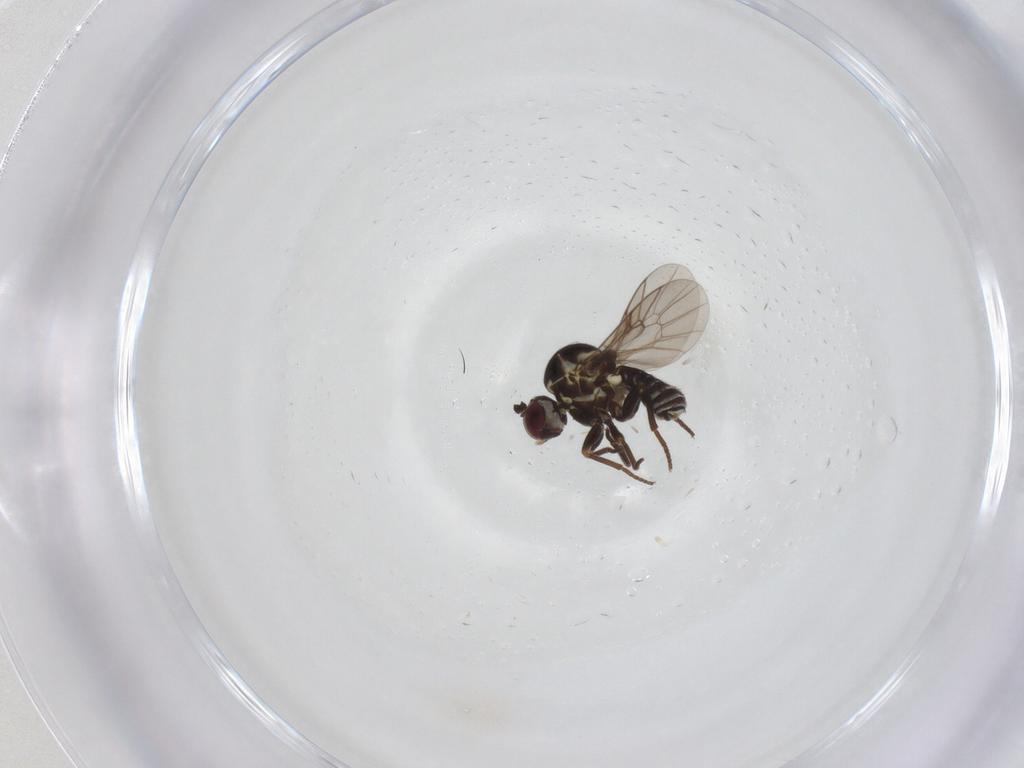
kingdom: Animalia
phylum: Arthropoda
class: Insecta
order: Diptera
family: Mythicomyiidae
